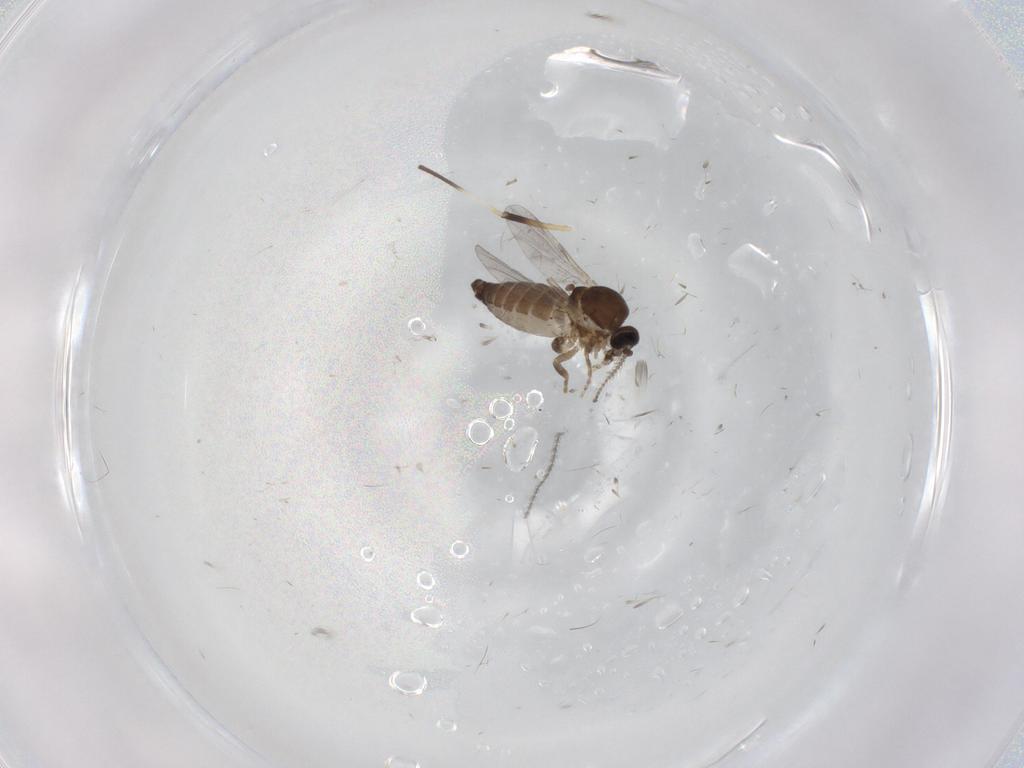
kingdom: Animalia
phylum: Arthropoda
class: Insecta
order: Diptera
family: Ceratopogonidae
